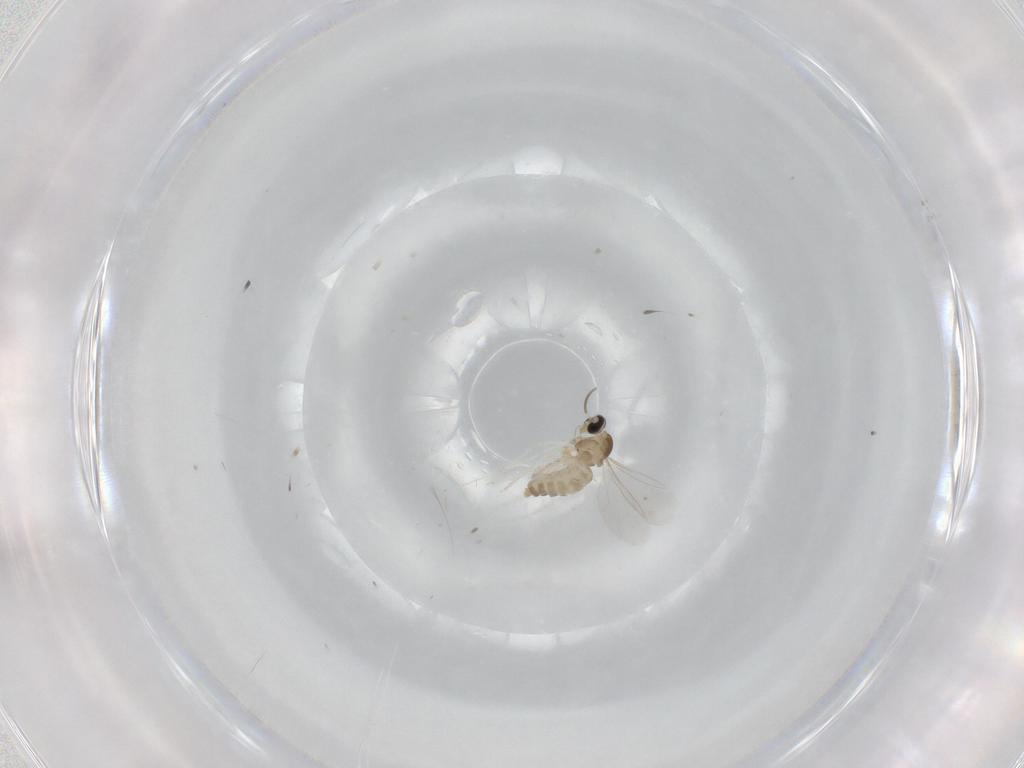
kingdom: Animalia
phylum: Arthropoda
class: Insecta
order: Diptera
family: Cecidomyiidae
